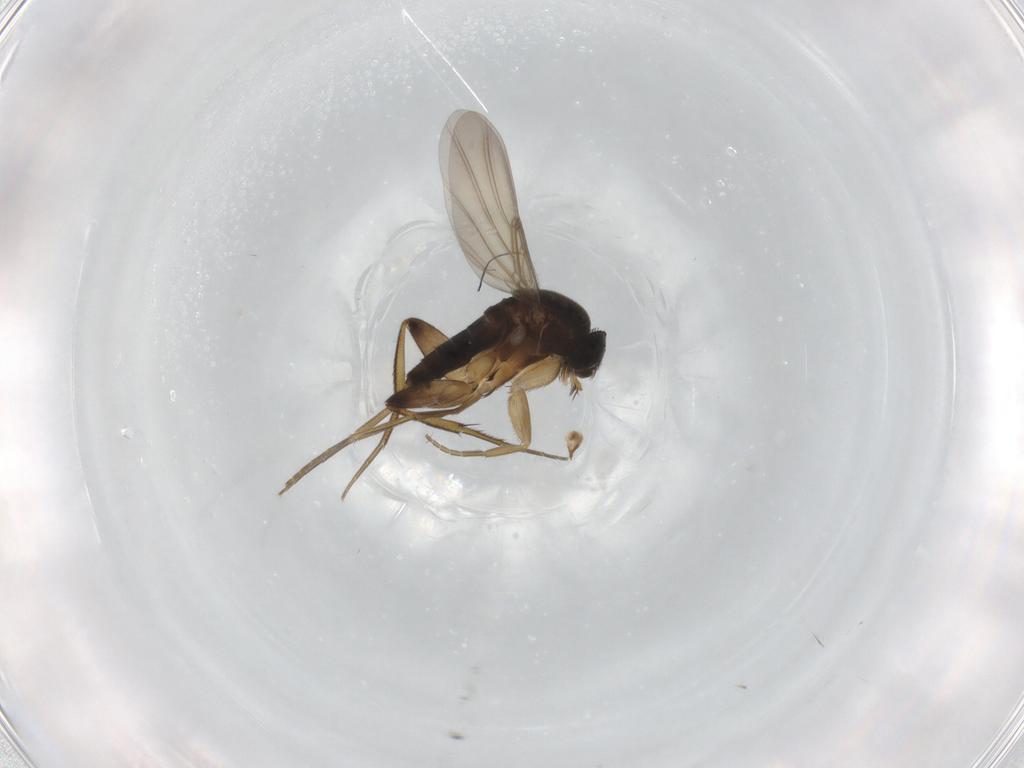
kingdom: Animalia
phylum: Arthropoda
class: Insecta
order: Diptera
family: Phoridae
